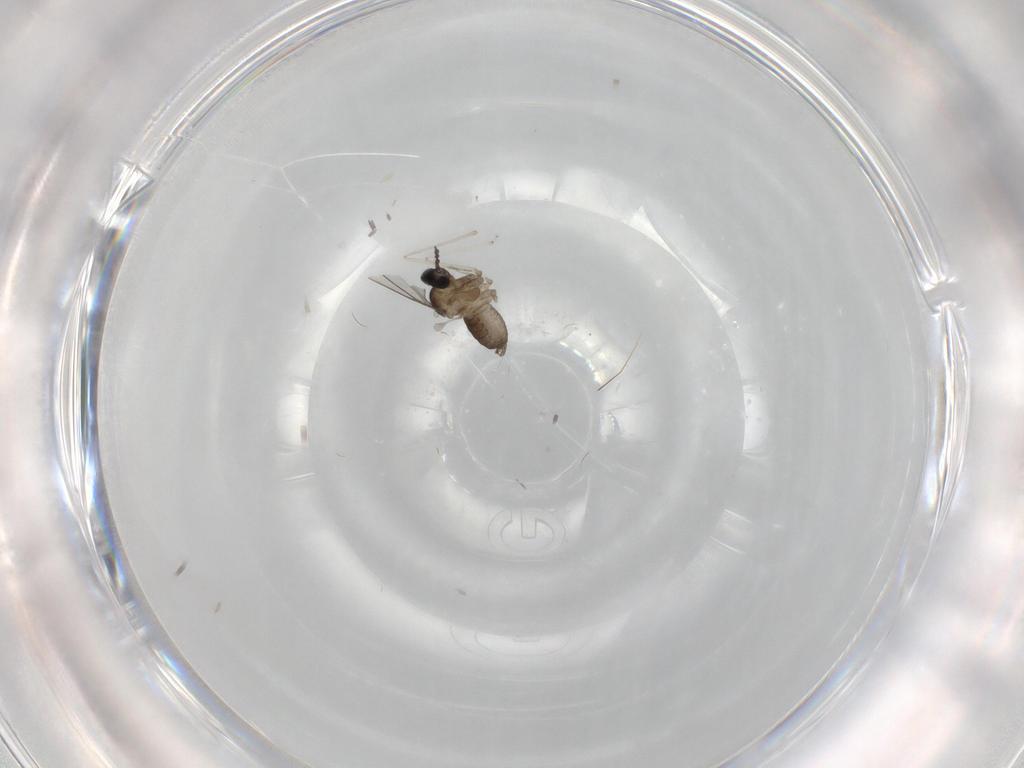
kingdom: Animalia
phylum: Arthropoda
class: Insecta
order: Diptera
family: Cecidomyiidae
